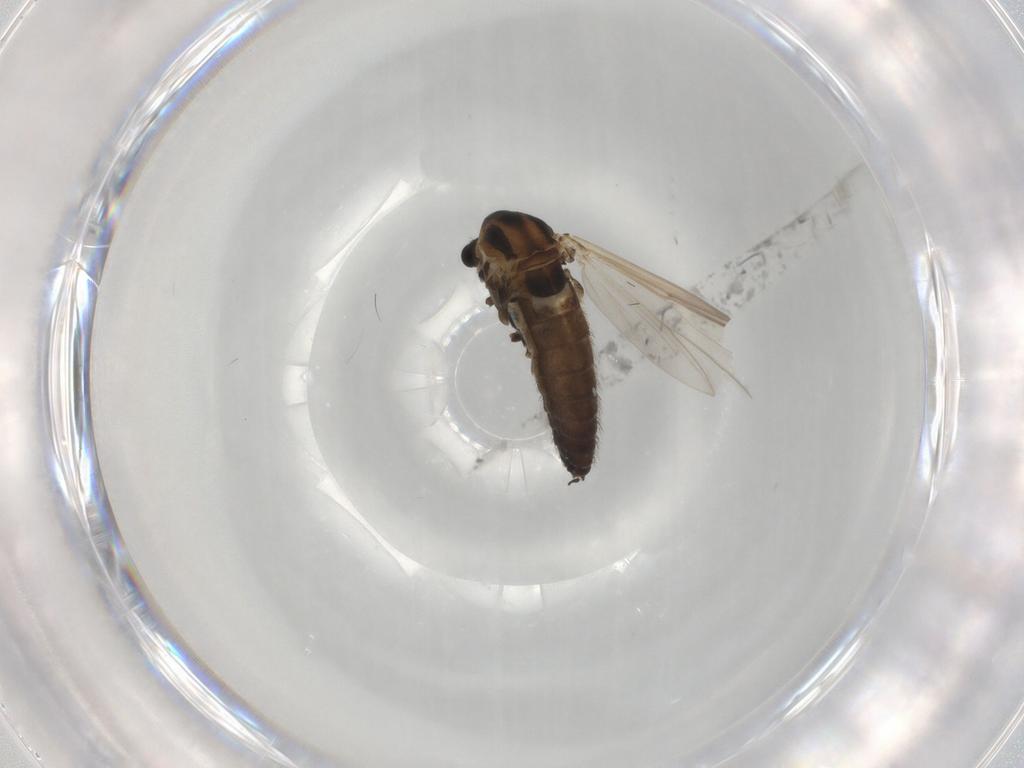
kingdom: Animalia
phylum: Arthropoda
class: Insecta
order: Diptera
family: Chironomidae
